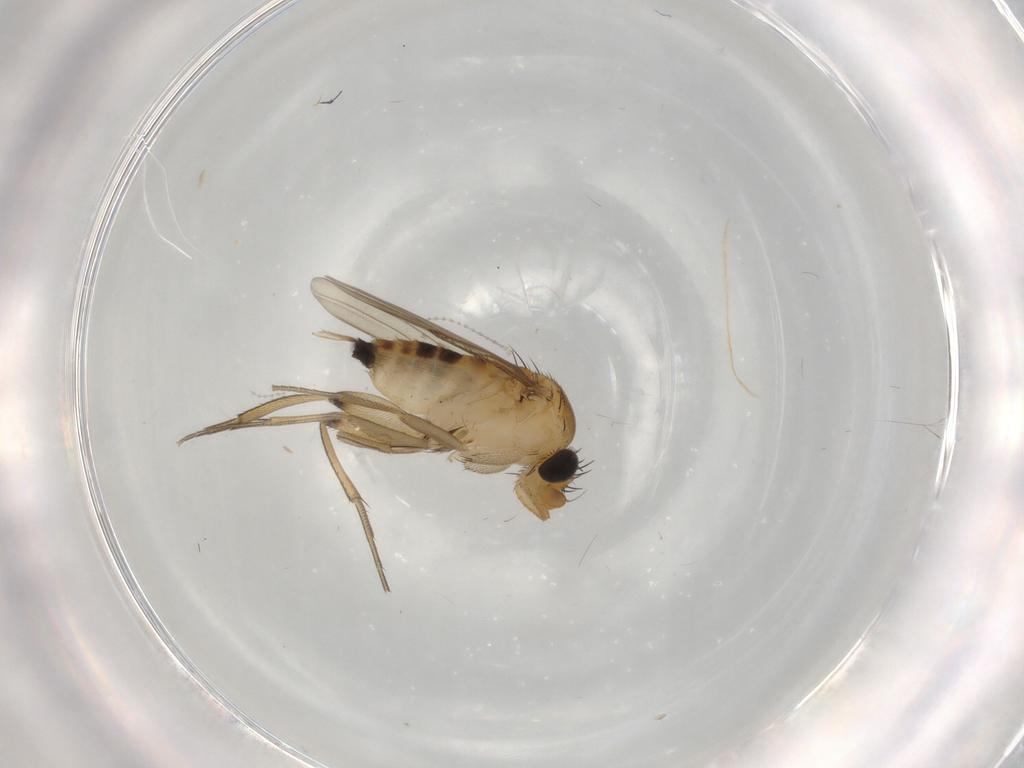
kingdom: Animalia
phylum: Arthropoda
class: Insecta
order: Diptera
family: Phoridae
